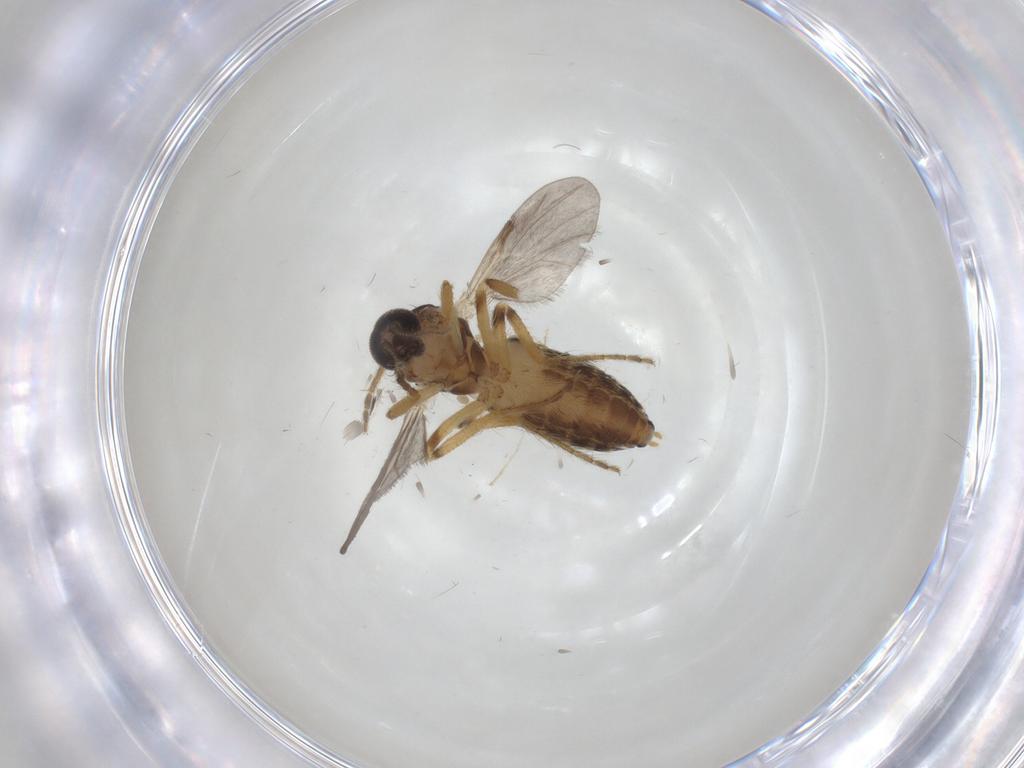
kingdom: Animalia
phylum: Arthropoda
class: Insecta
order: Diptera
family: Ceratopogonidae
